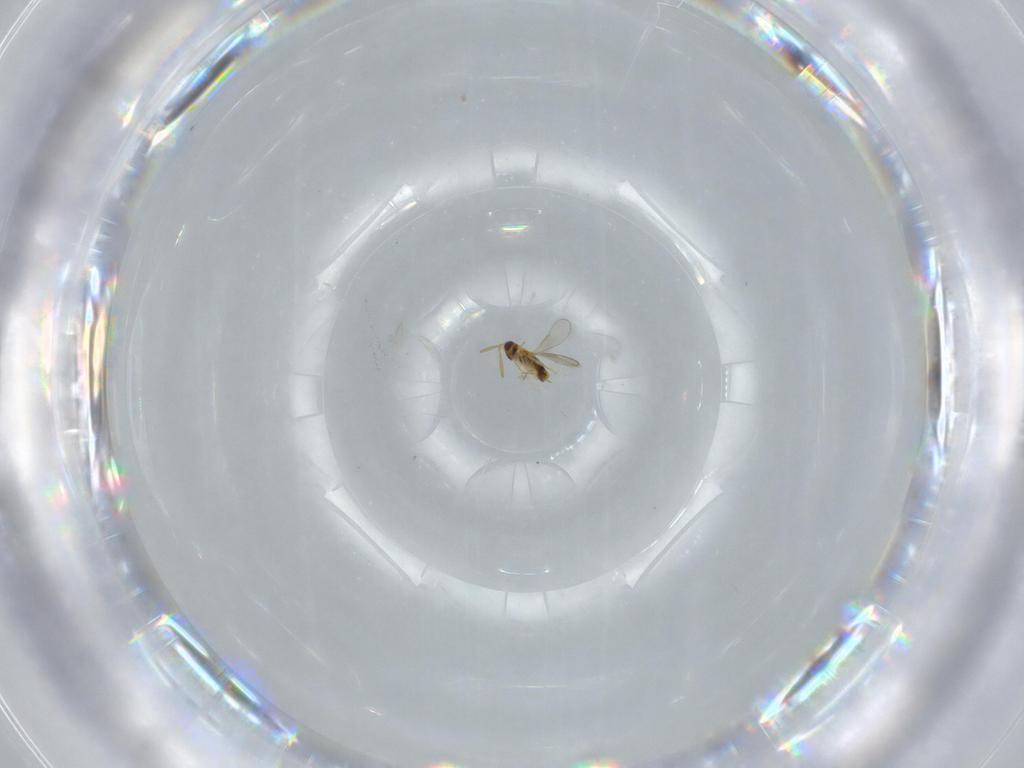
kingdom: Animalia
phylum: Arthropoda
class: Insecta
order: Hymenoptera
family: Aphelinidae
